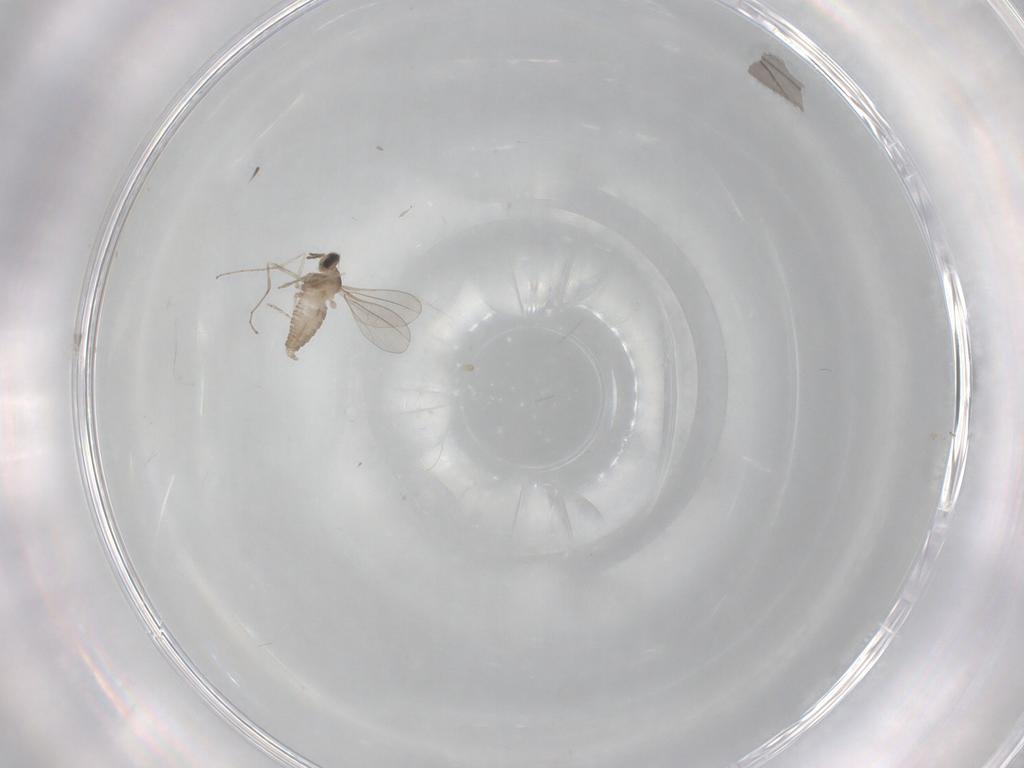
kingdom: Animalia
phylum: Arthropoda
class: Insecta
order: Diptera
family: Cecidomyiidae
